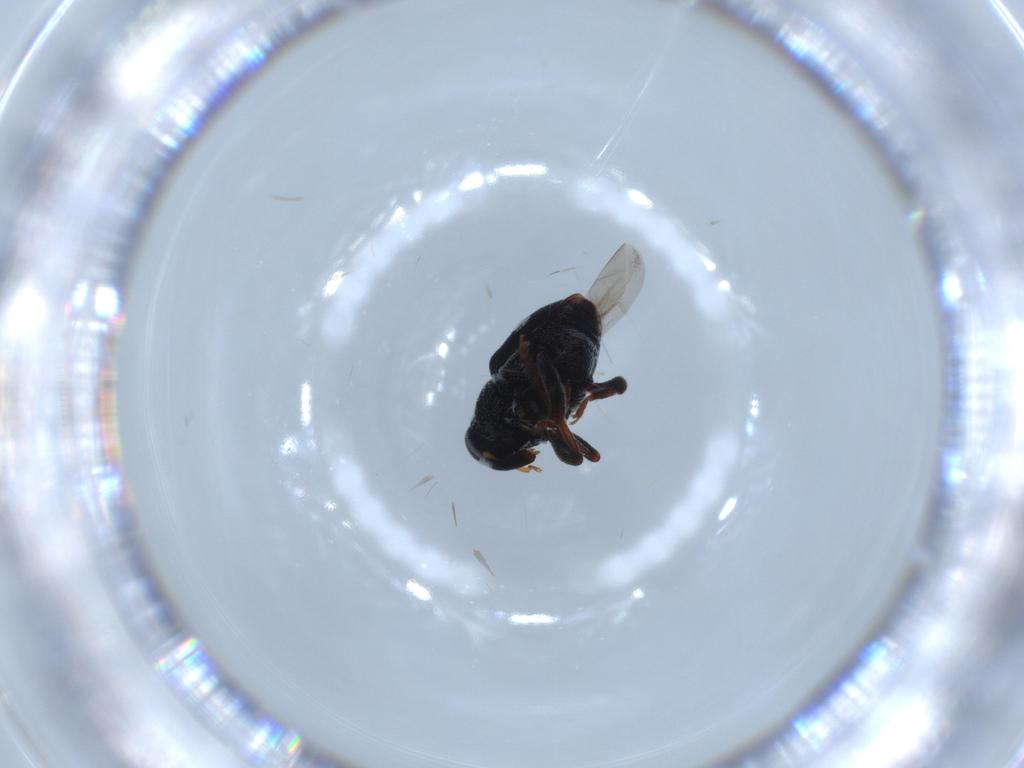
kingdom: Animalia
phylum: Arthropoda
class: Insecta
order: Coleoptera
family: Curculionidae
